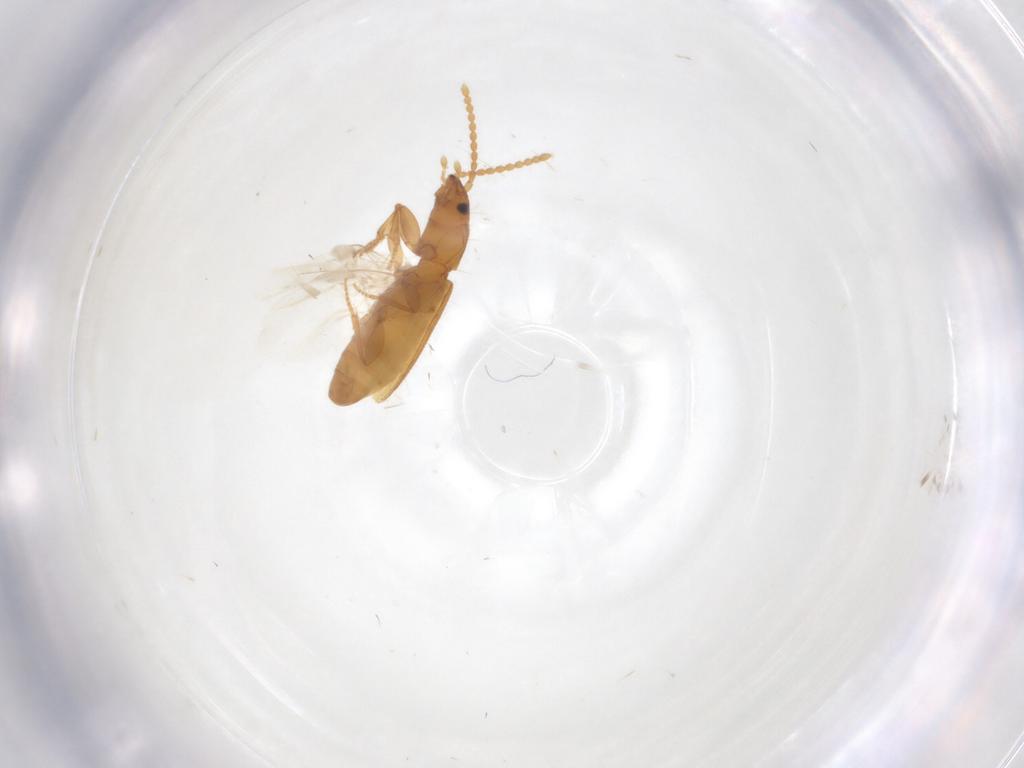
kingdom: Animalia
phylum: Arthropoda
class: Insecta
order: Coleoptera
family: Carabidae
